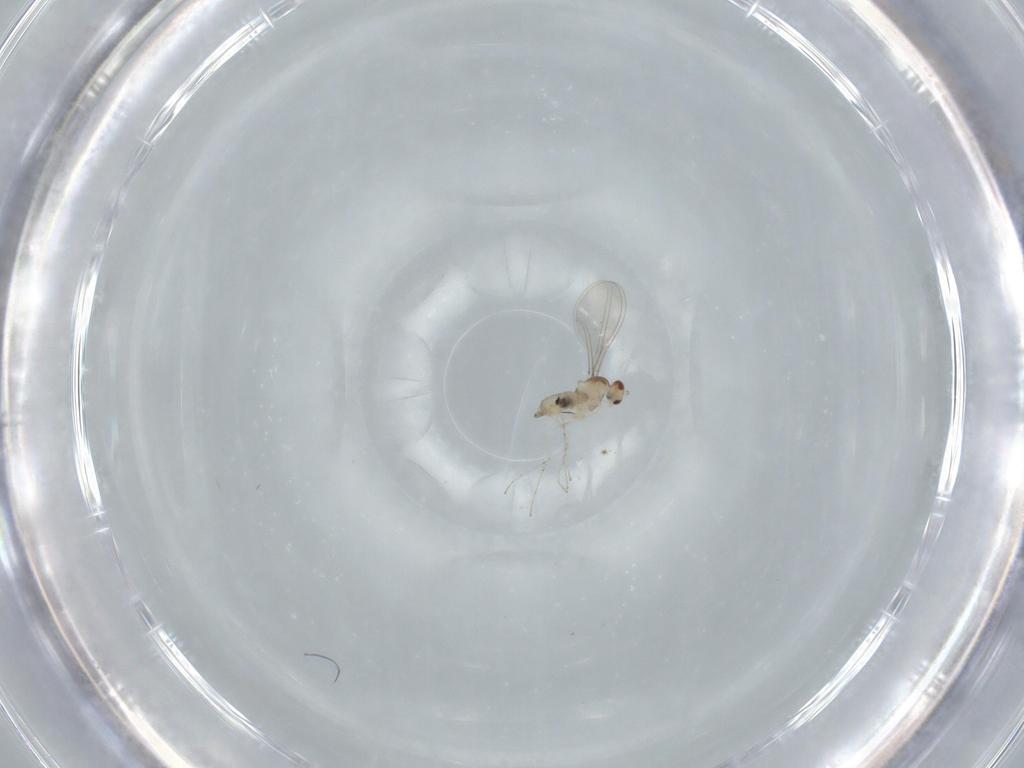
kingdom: Animalia
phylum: Arthropoda
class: Insecta
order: Diptera
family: Cecidomyiidae
